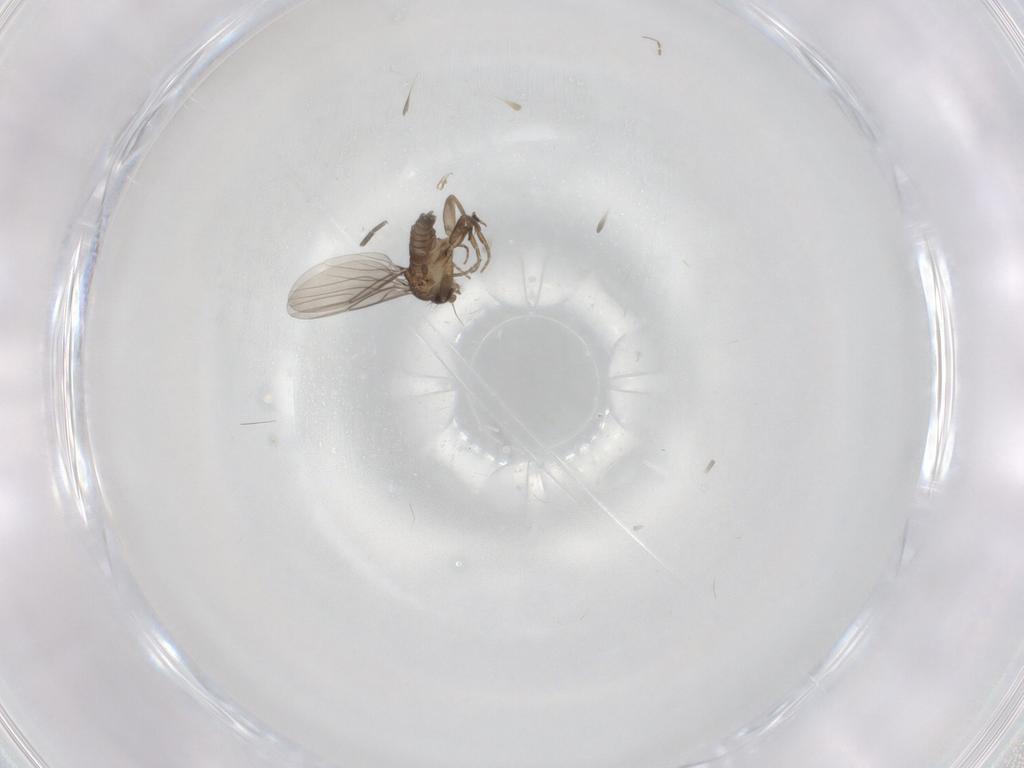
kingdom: Animalia
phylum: Arthropoda
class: Insecta
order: Diptera
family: Keroplatidae
